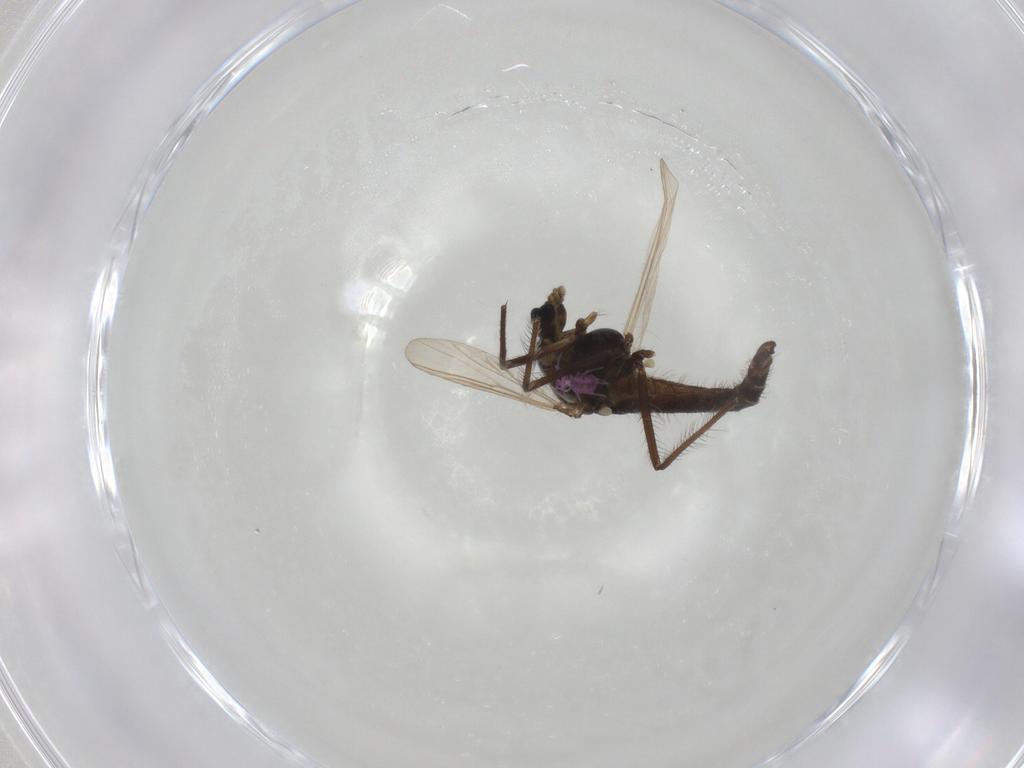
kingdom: Animalia
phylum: Arthropoda
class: Insecta
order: Diptera
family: Chironomidae
